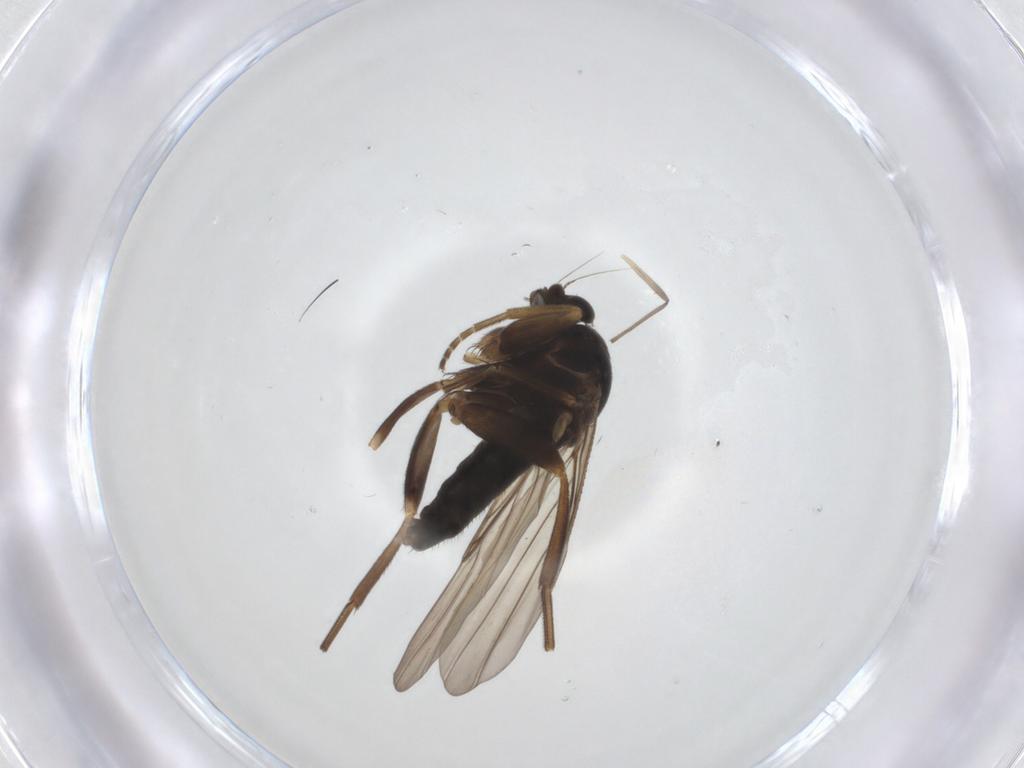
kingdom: Animalia
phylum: Arthropoda
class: Insecta
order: Diptera
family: Phoridae
